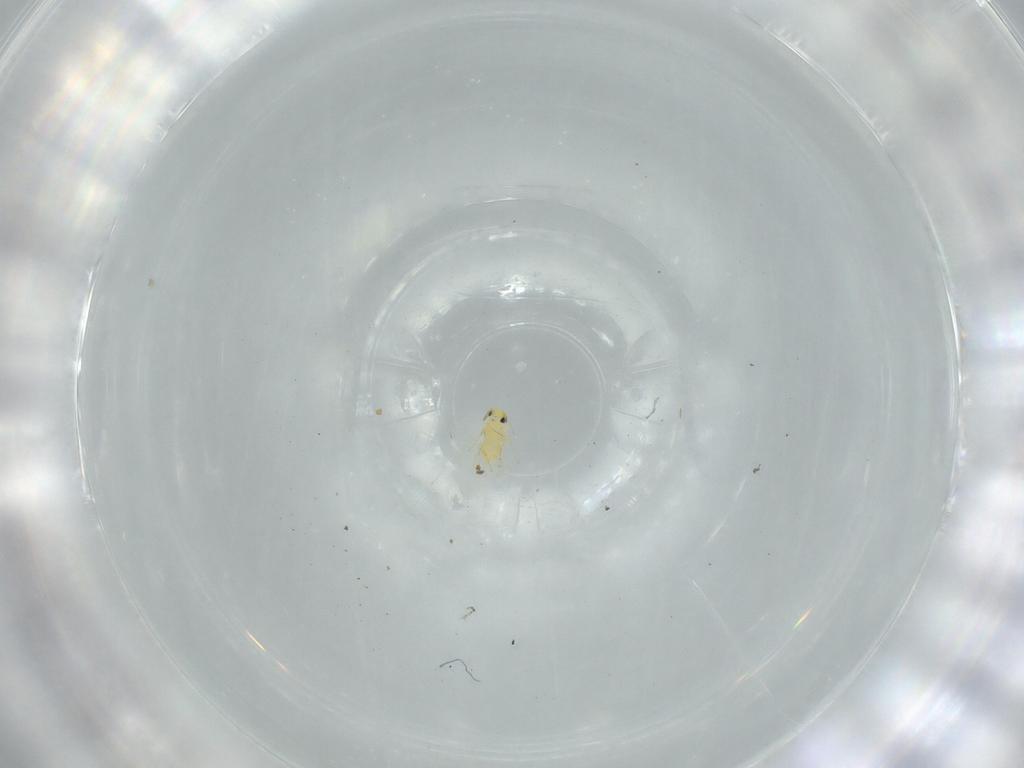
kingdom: Animalia
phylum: Arthropoda
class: Insecta
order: Hymenoptera
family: Trichogrammatidae
